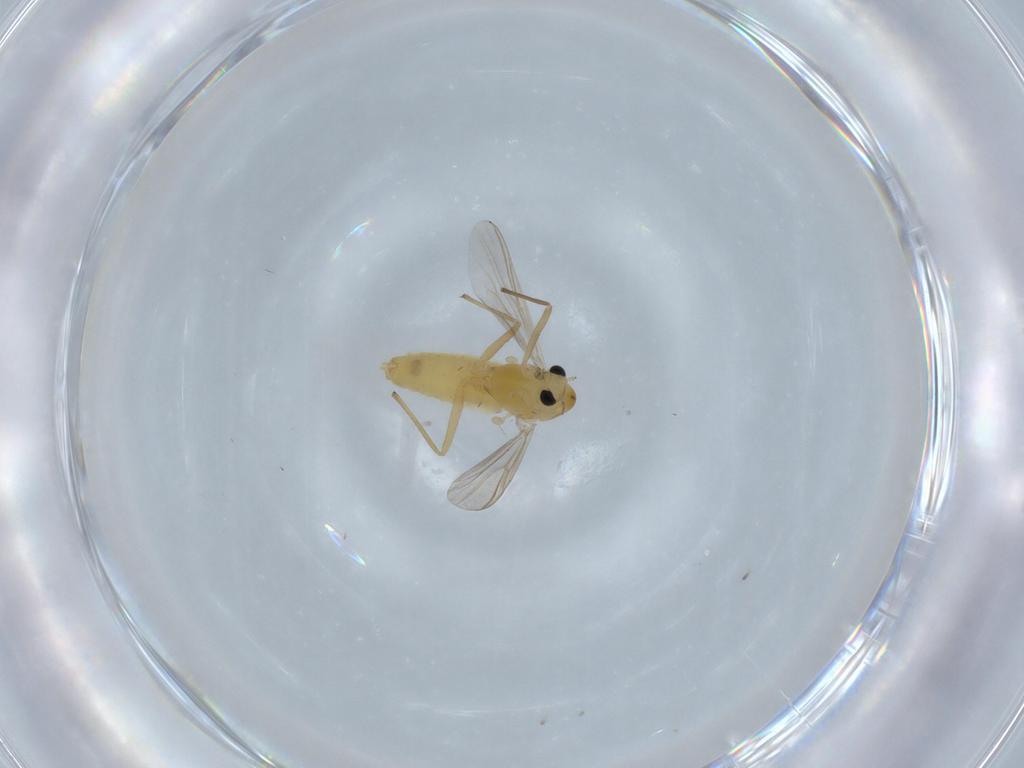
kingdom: Animalia
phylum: Arthropoda
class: Insecta
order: Diptera
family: Chironomidae
